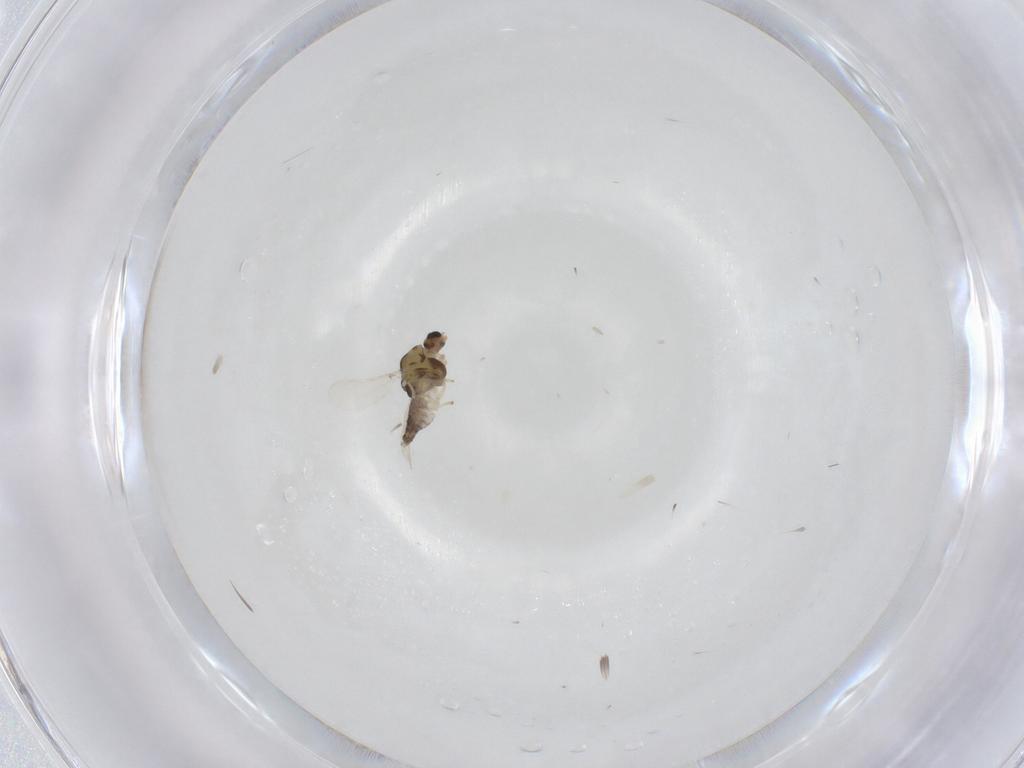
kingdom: Animalia
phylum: Arthropoda
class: Insecta
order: Diptera
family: Chironomidae
